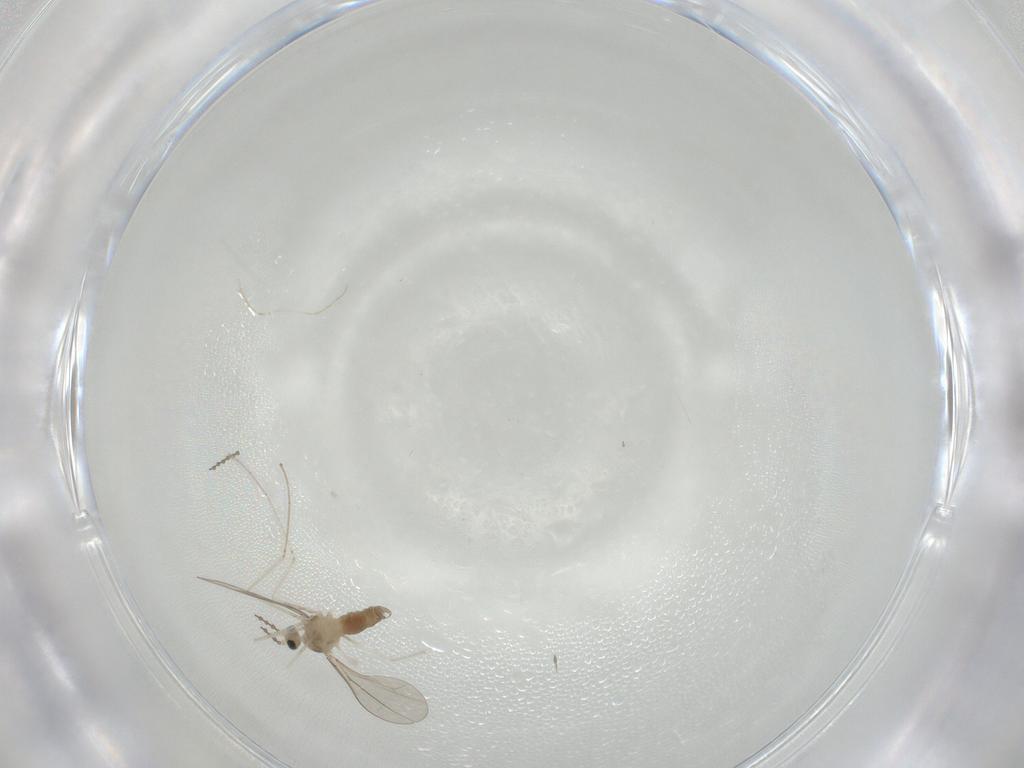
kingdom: Animalia
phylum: Arthropoda
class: Insecta
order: Diptera
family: Cecidomyiidae
